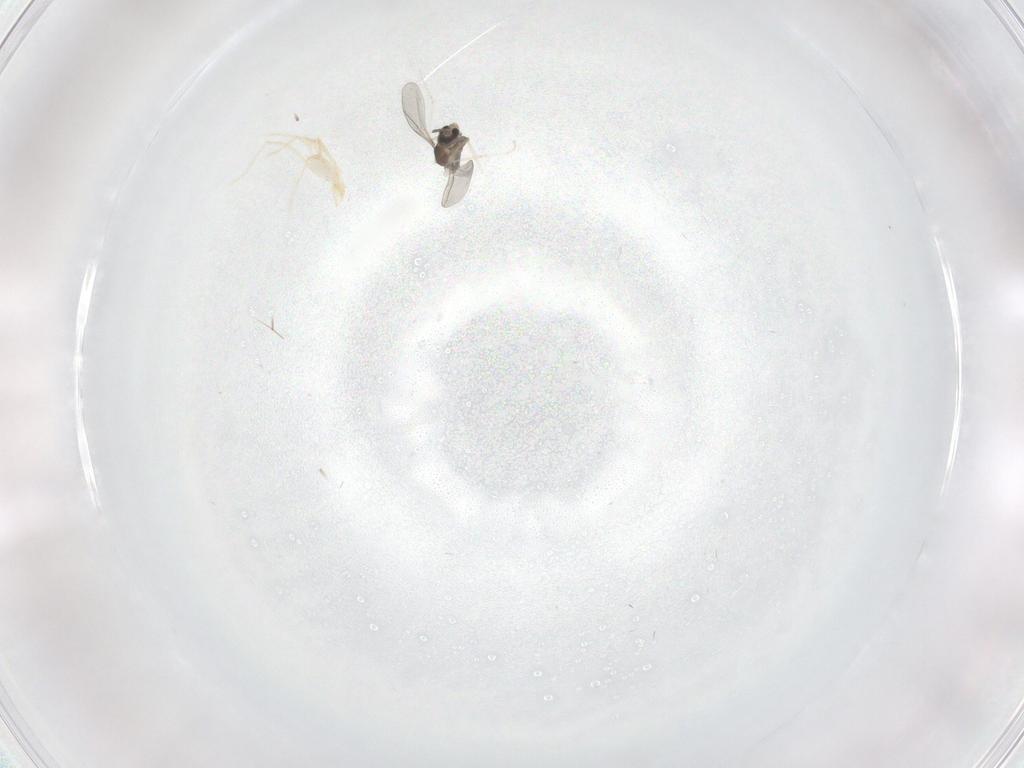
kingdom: Animalia
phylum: Arthropoda
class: Insecta
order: Diptera
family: Cecidomyiidae
